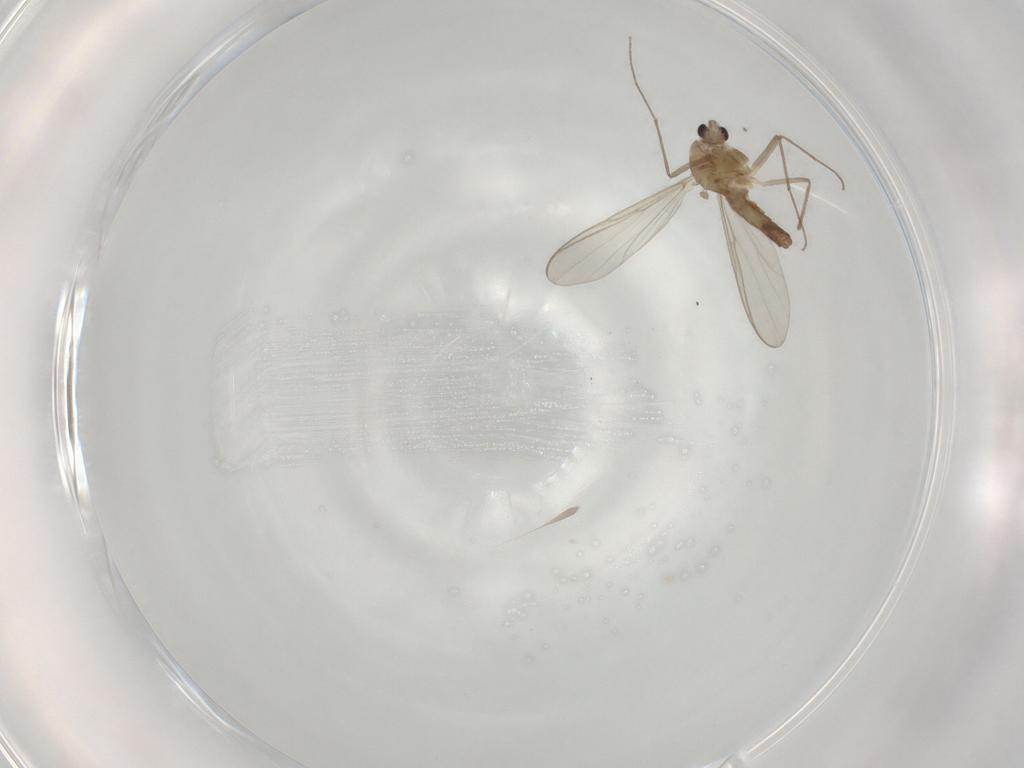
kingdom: Animalia
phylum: Arthropoda
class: Insecta
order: Diptera
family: Chironomidae
